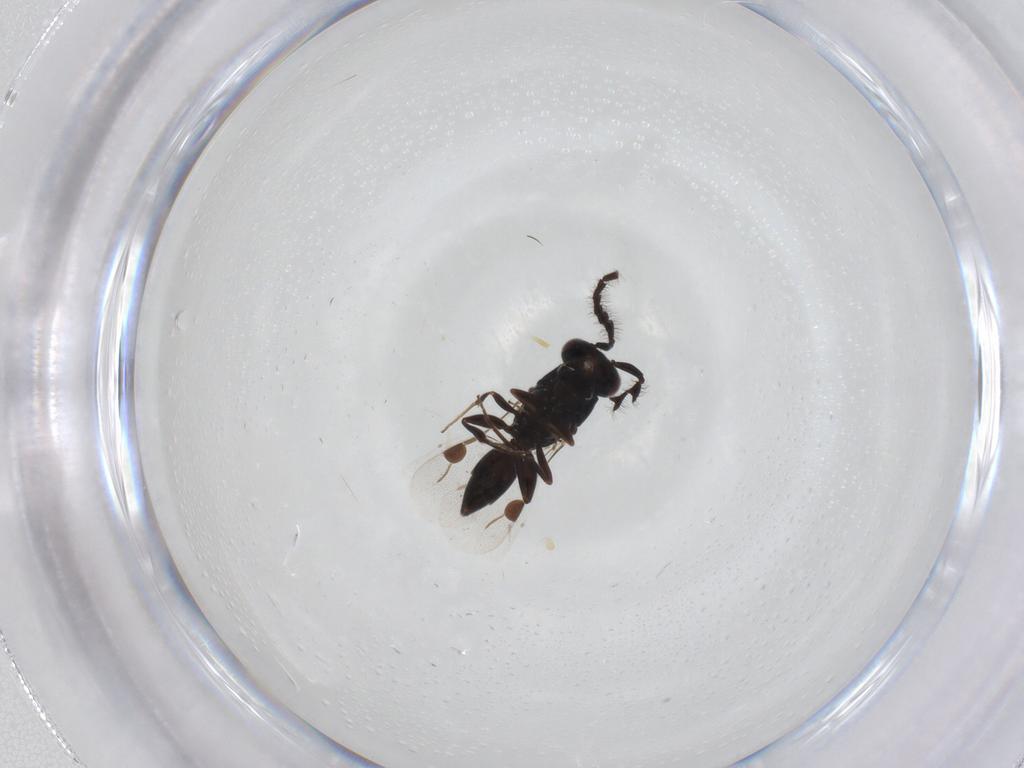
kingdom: Animalia
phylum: Arthropoda
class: Insecta
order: Hymenoptera
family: Megaspilidae
